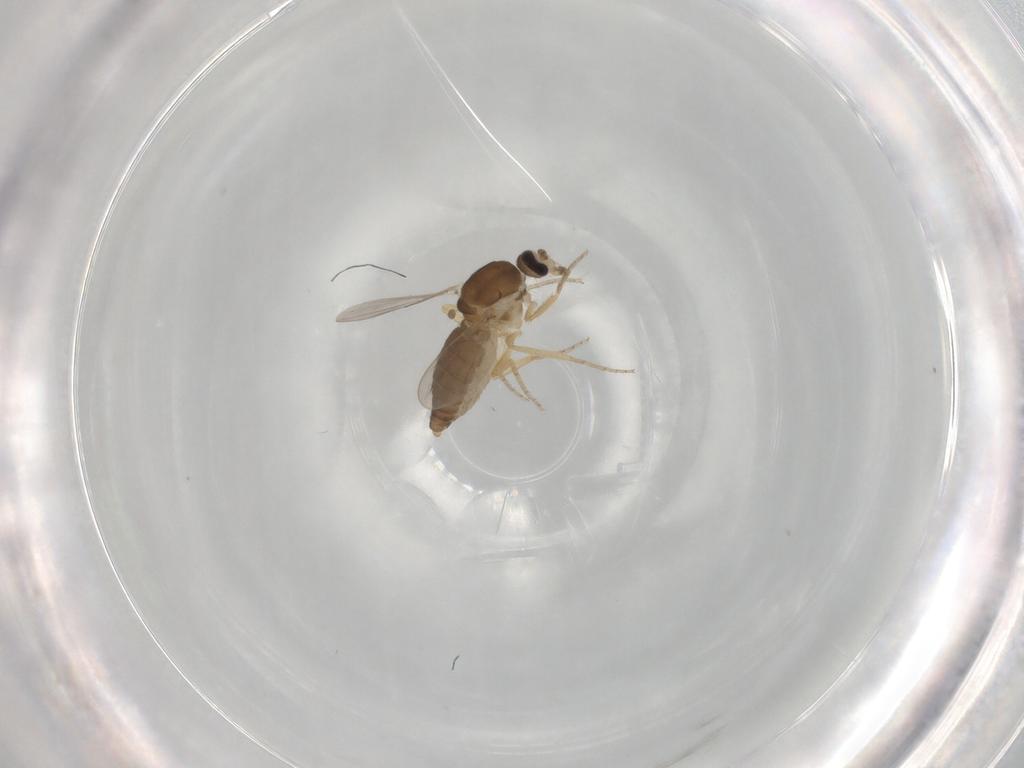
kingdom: Animalia
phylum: Arthropoda
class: Insecta
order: Diptera
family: Ceratopogonidae
